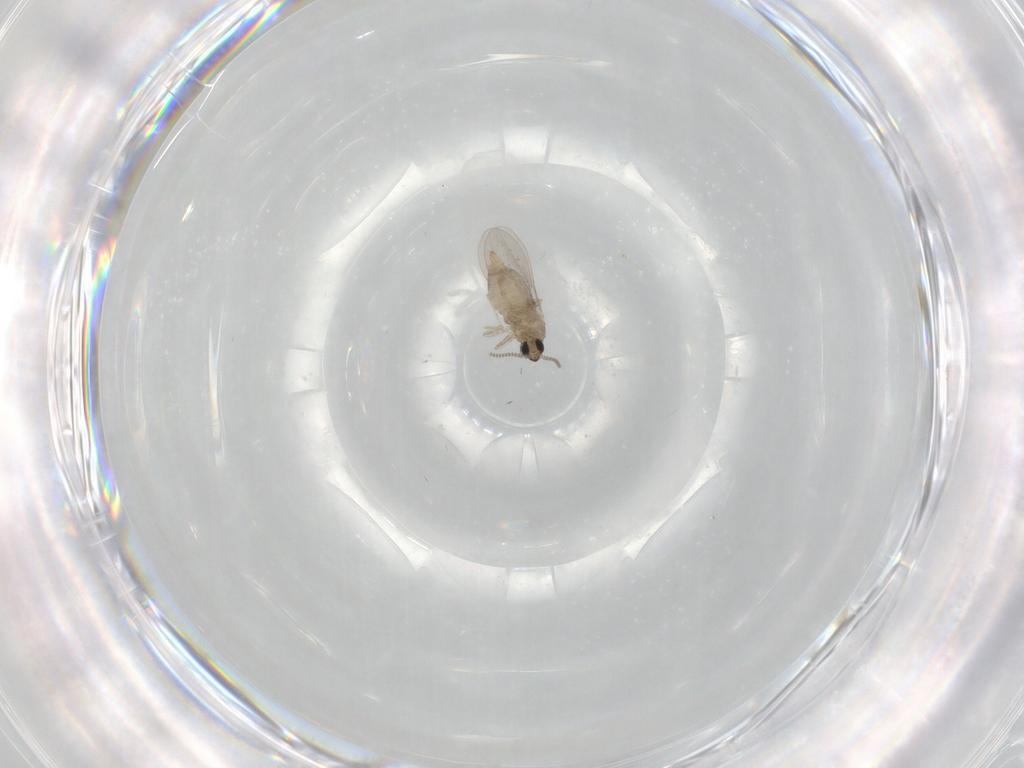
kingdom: Animalia
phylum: Arthropoda
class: Insecta
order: Diptera
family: Cecidomyiidae
